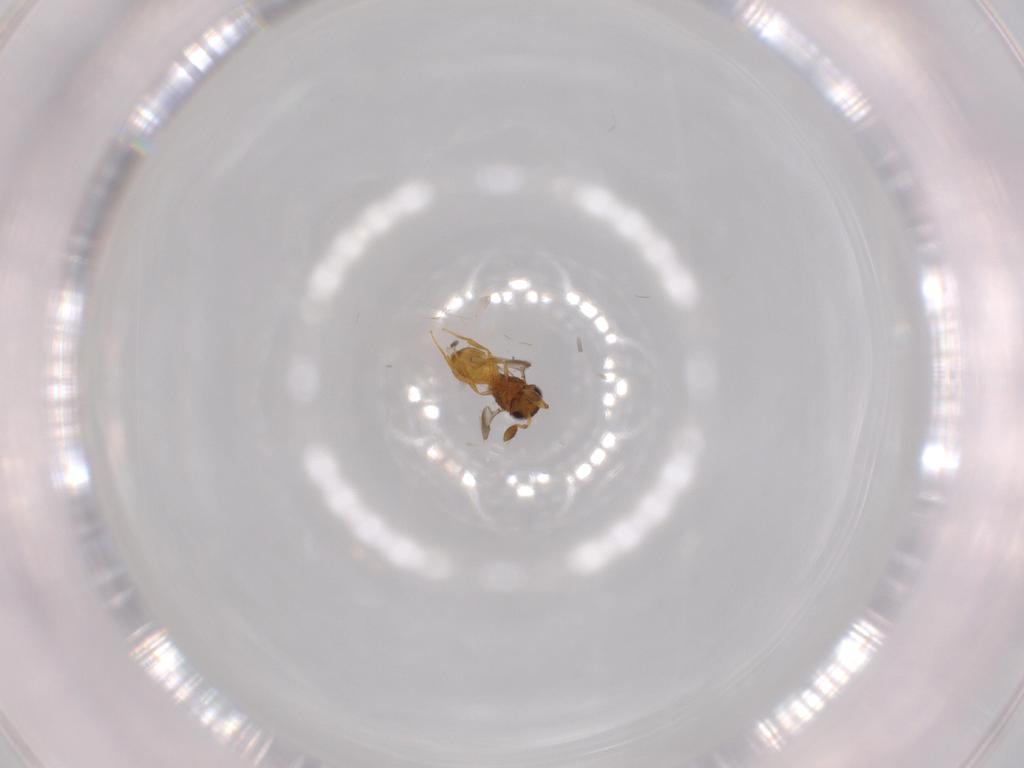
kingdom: Animalia
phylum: Arthropoda
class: Insecta
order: Hymenoptera
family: Scelionidae
